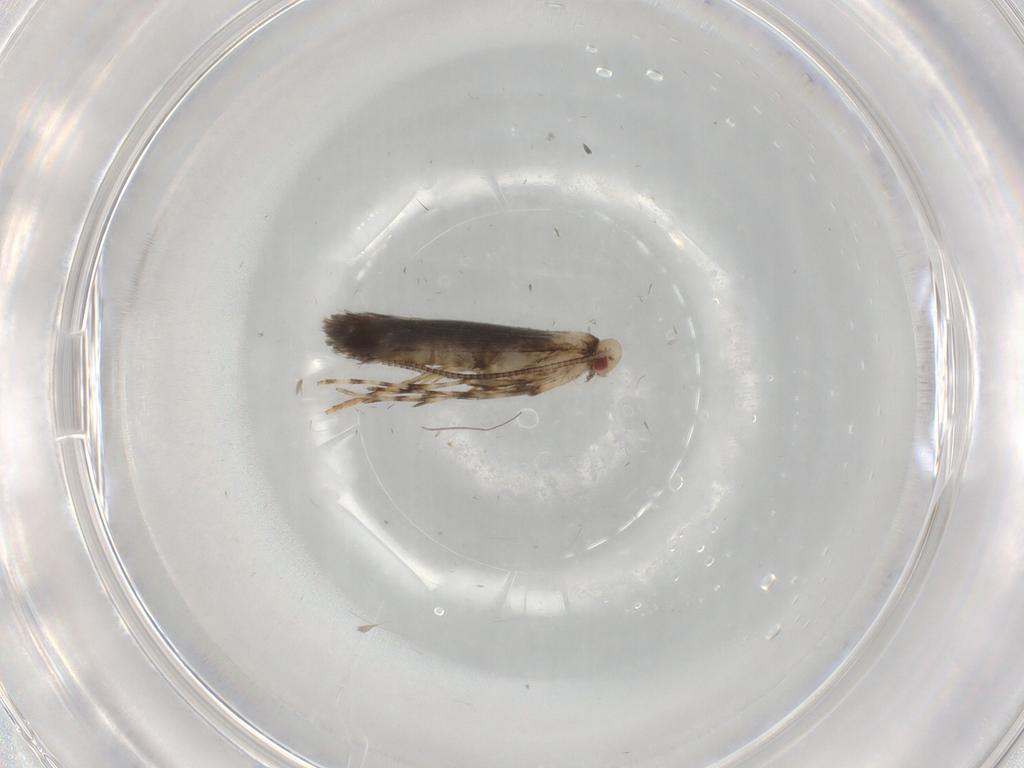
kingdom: Animalia
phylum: Arthropoda
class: Insecta
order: Lepidoptera
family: Gracillariidae
